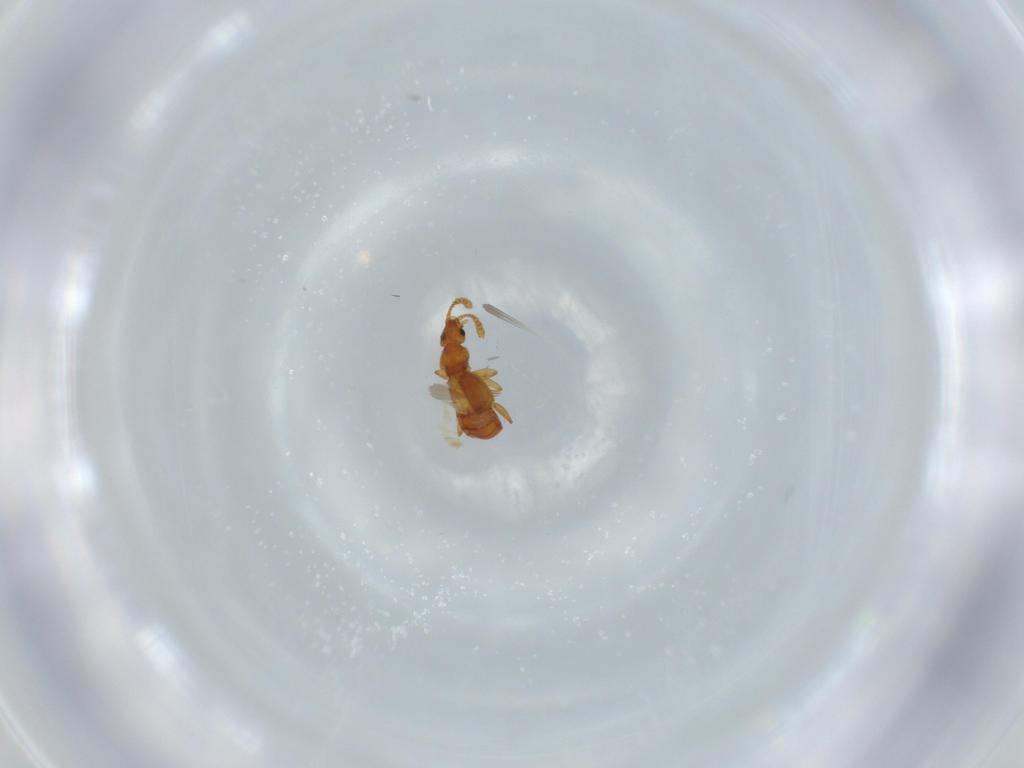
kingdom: Animalia
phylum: Arthropoda
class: Insecta
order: Coleoptera
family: Staphylinidae
